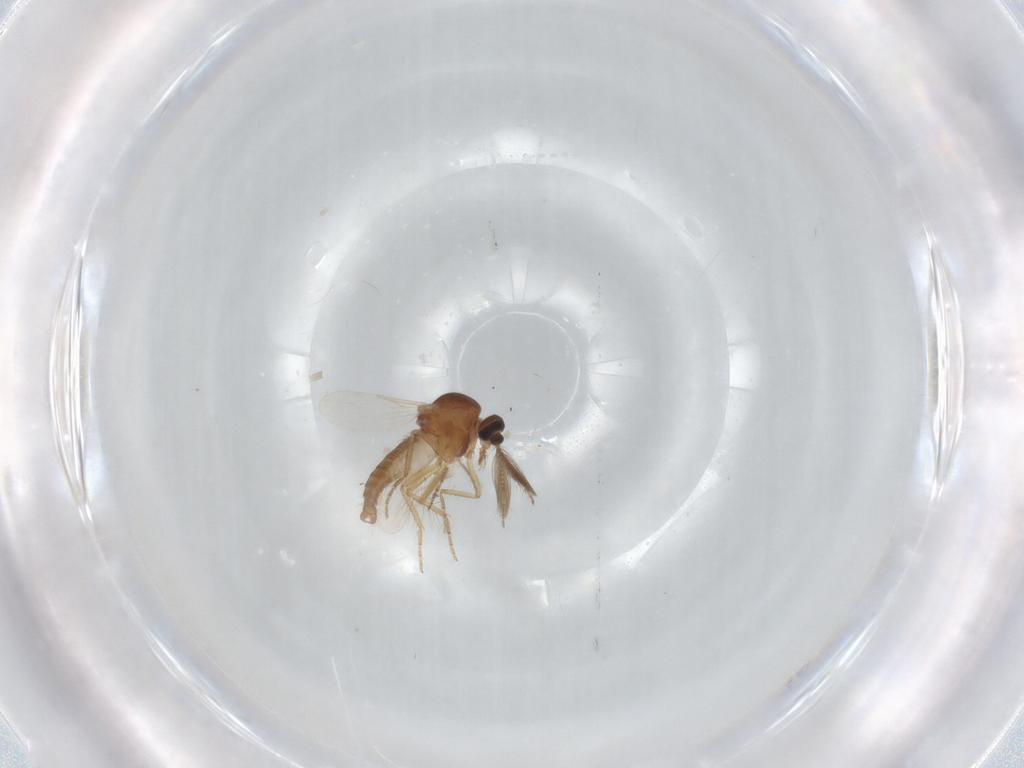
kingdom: Animalia
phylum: Arthropoda
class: Insecta
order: Diptera
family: Ceratopogonidae
